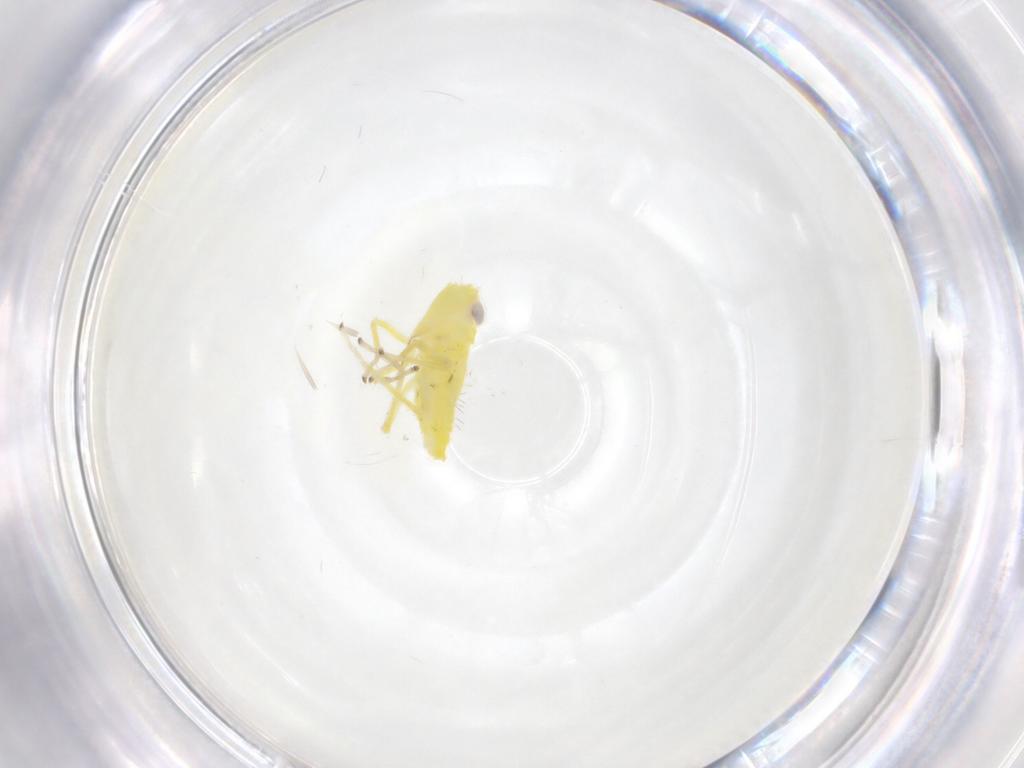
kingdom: Animalia
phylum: Arthropoda
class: Insecta
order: Hemiptera
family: Cicadellidae
